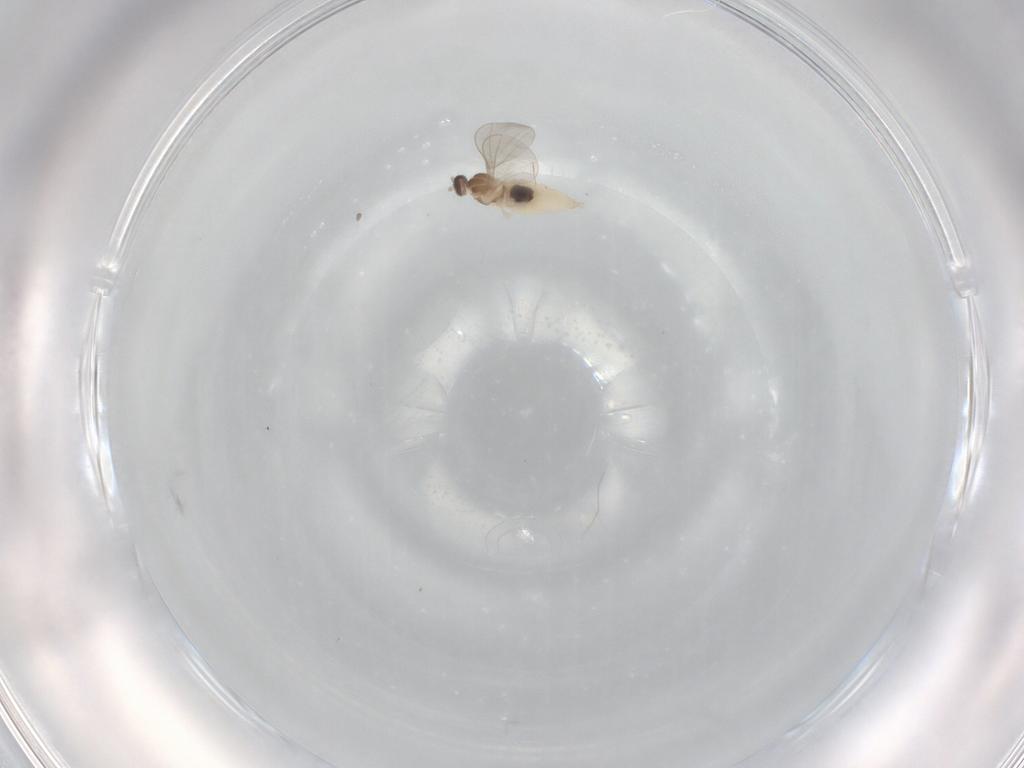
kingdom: Animalia
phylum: Arthropoda
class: Insecta
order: Diptera
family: Cecidomyiidae
